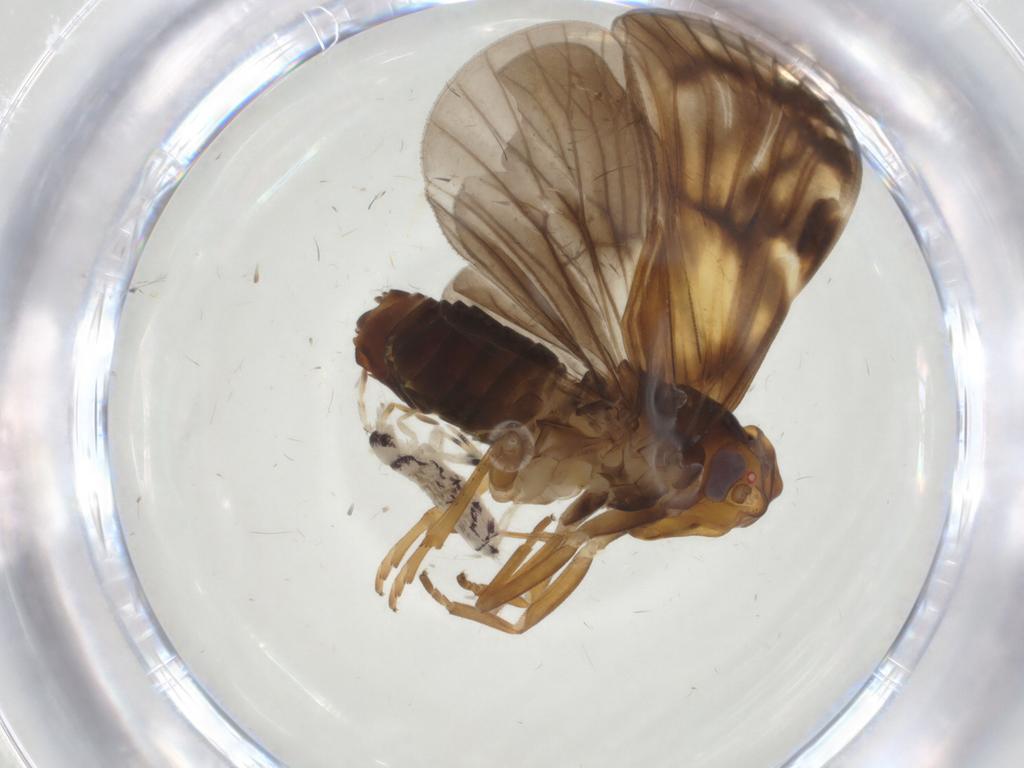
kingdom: Animalia
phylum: Arthropoda
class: Insecta
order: Hemiptera
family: Cixiidae
